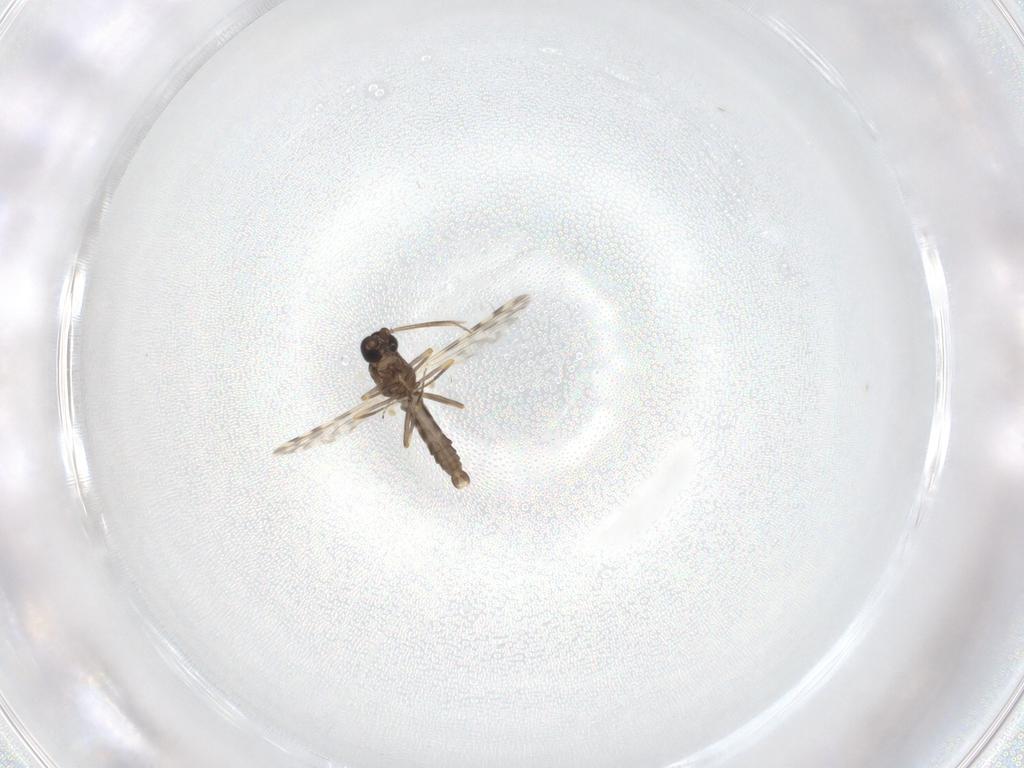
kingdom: Animalia
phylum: Arthropoda
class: Insecta
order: Diptera
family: Ceratopogonidae
